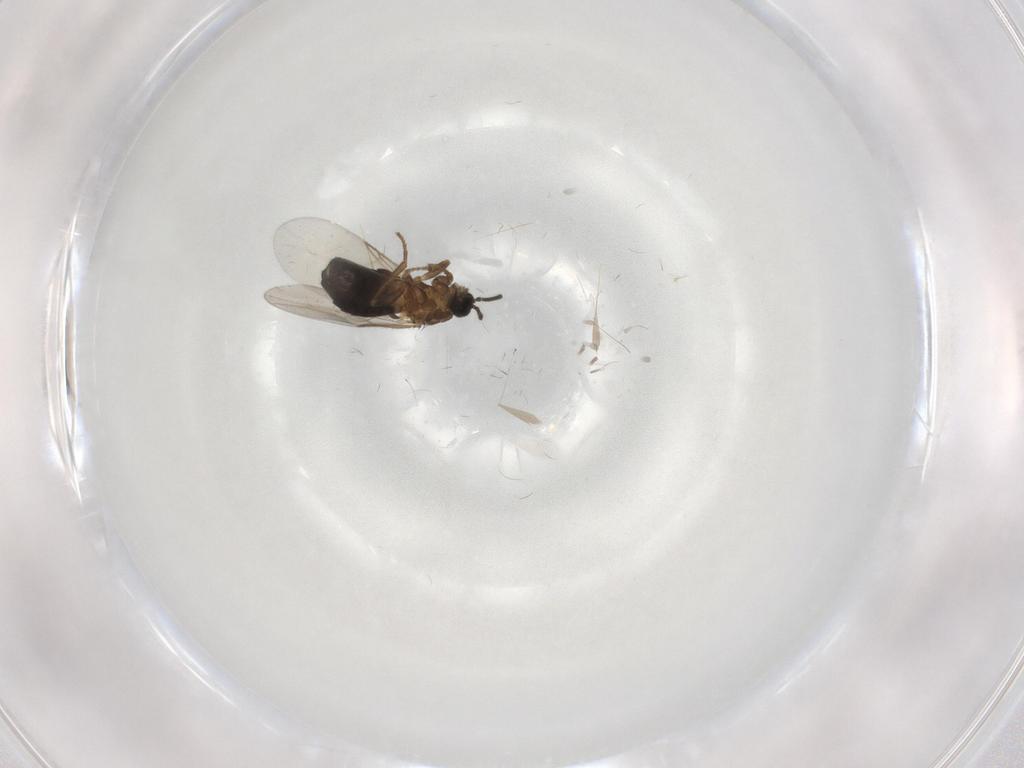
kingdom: Animalia
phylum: Arthropoda
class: Insecta
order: Diptera
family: Scatopsidae
